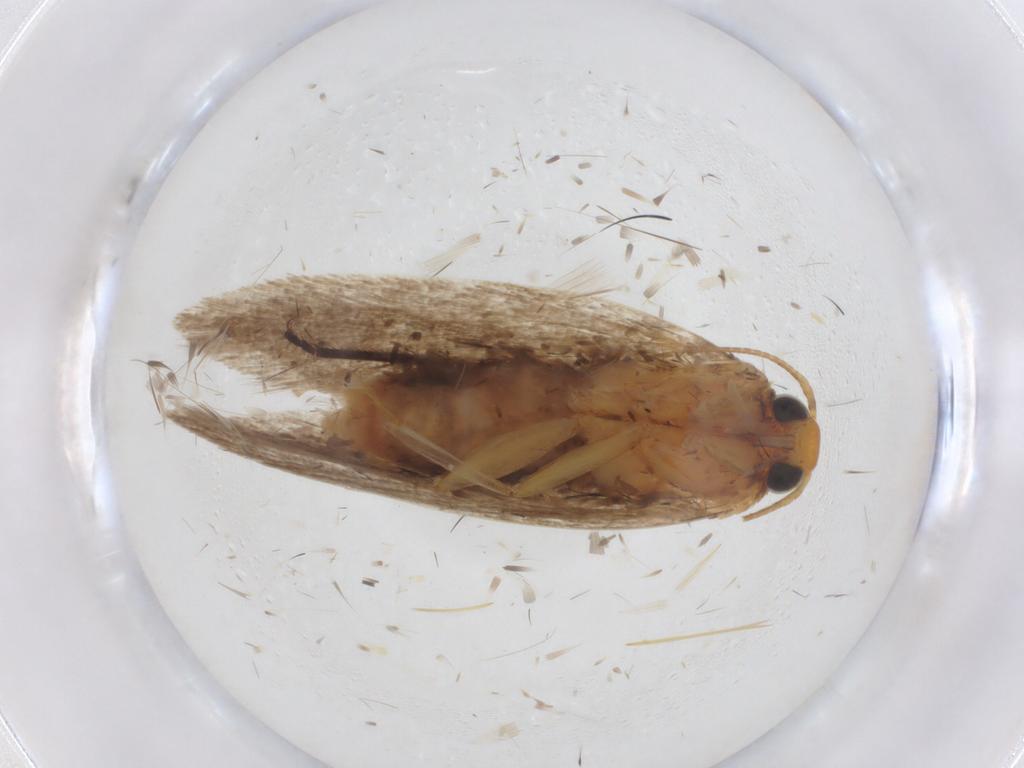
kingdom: Animalia
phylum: Arthropoda
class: Insecta
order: Lepidoptera
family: Gelechiidae
